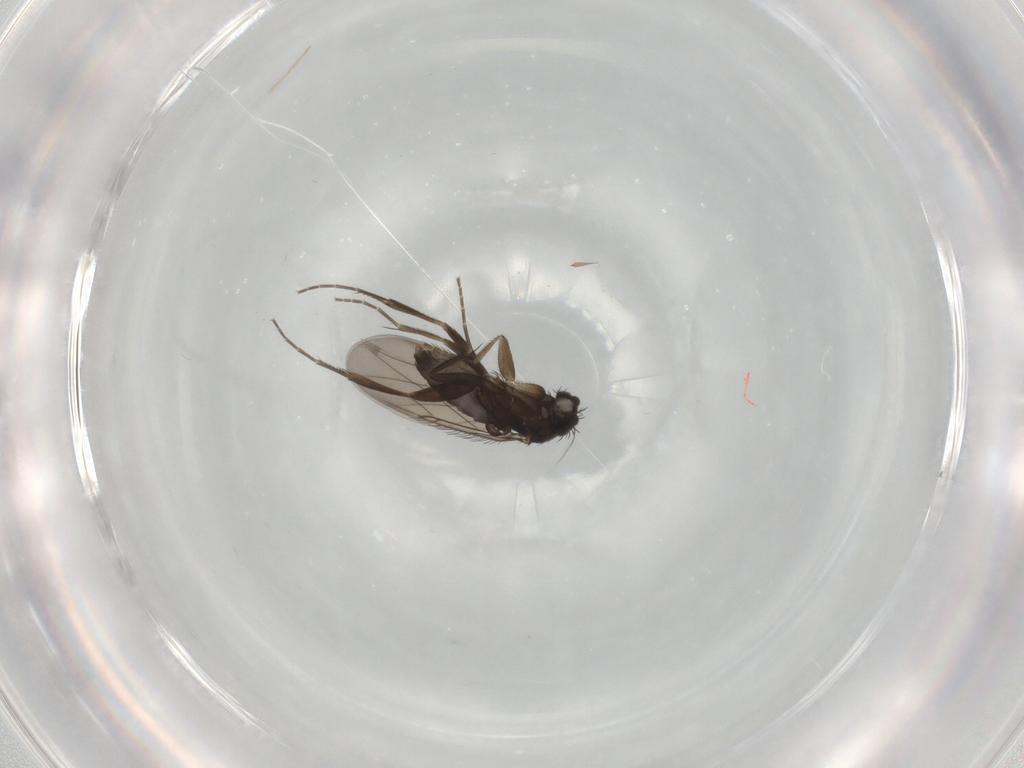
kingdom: Animalia
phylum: Arthropoda
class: Insecta
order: Diptera
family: Phoridae
